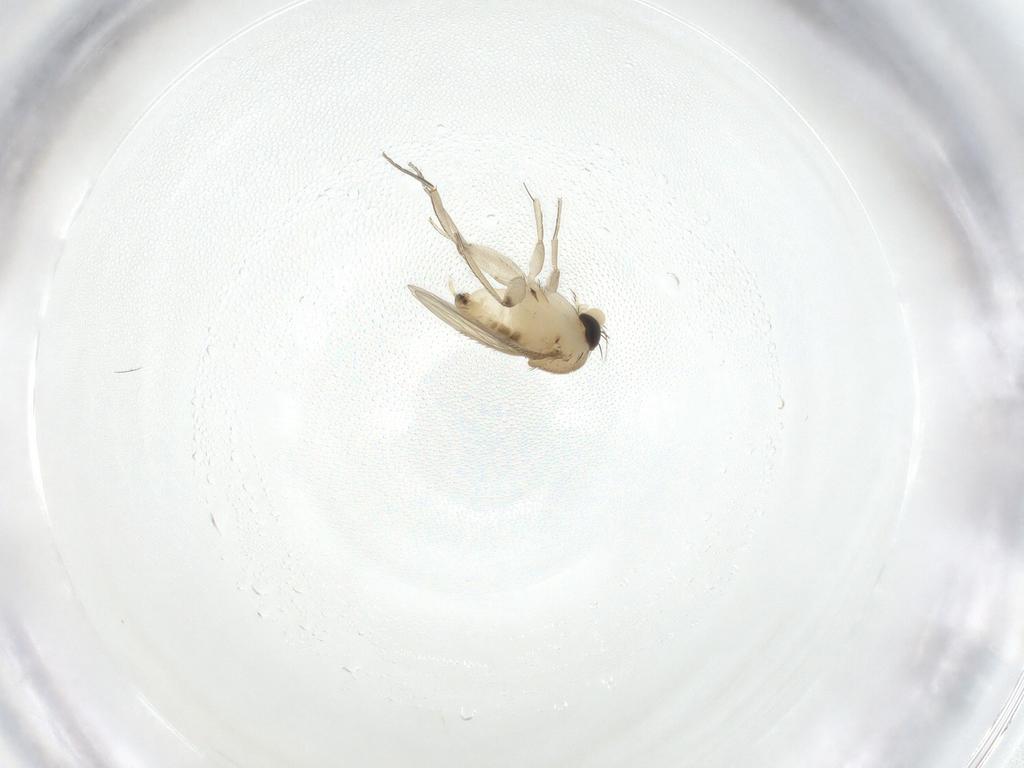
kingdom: Animalia
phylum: Arthropoda
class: Insecta
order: Diptera
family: Phoridae
